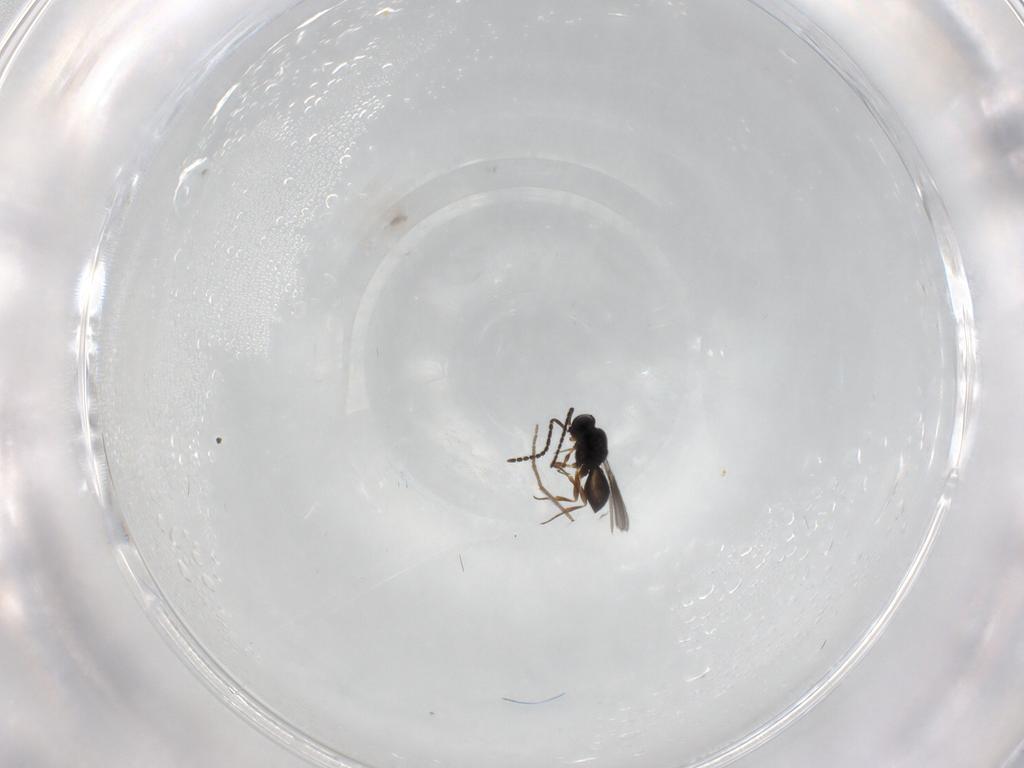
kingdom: Animalia
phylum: Arthropoda
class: Insecta
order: Hymenoptera
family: Scelionidae
